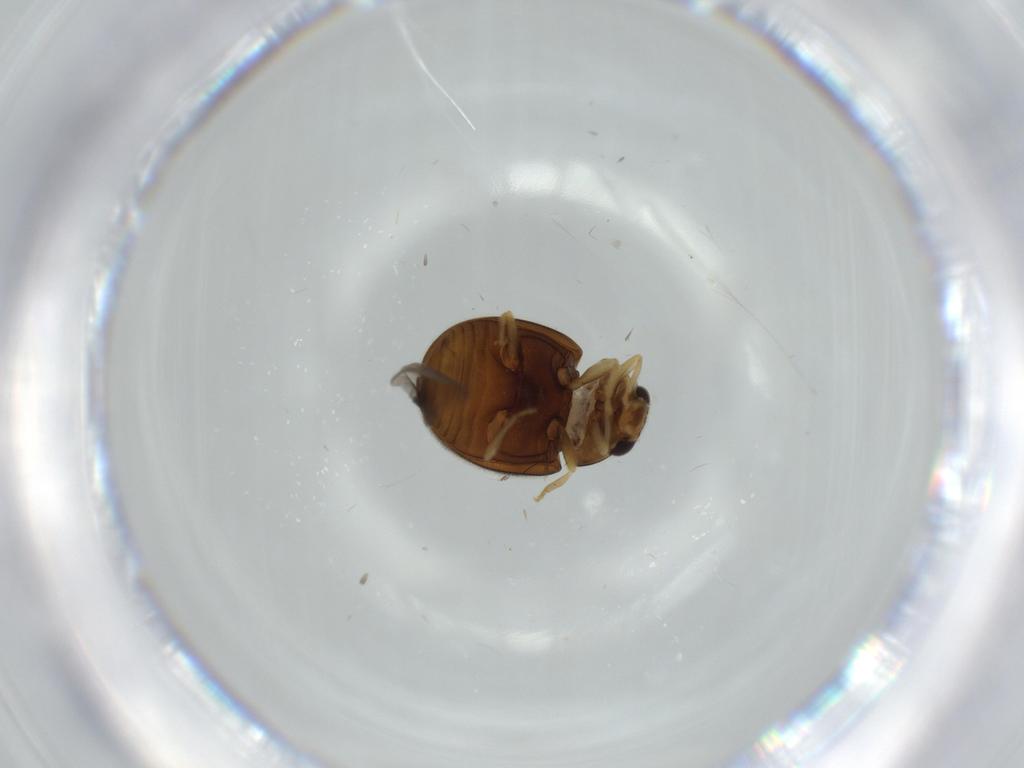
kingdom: Animalia
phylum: Arthropoda
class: Insecta
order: Coleoptera
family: Coccinellidae
